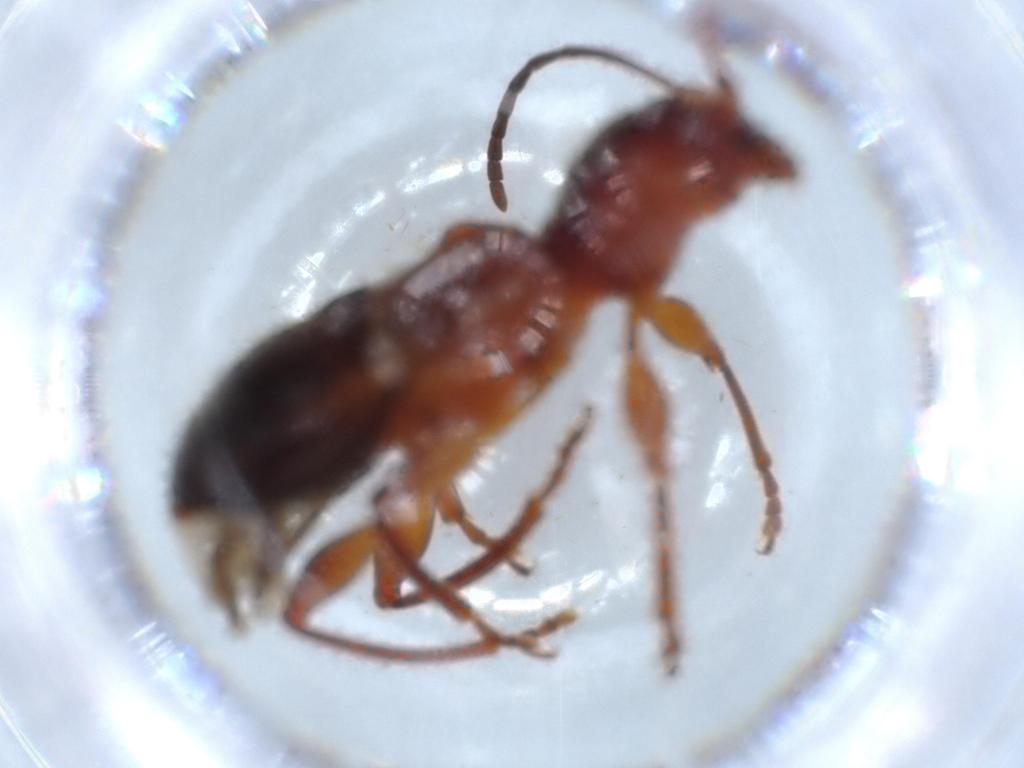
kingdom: Animalia
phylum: Arthropoda
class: Insecta
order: Coleoptera
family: Cerambycidae
